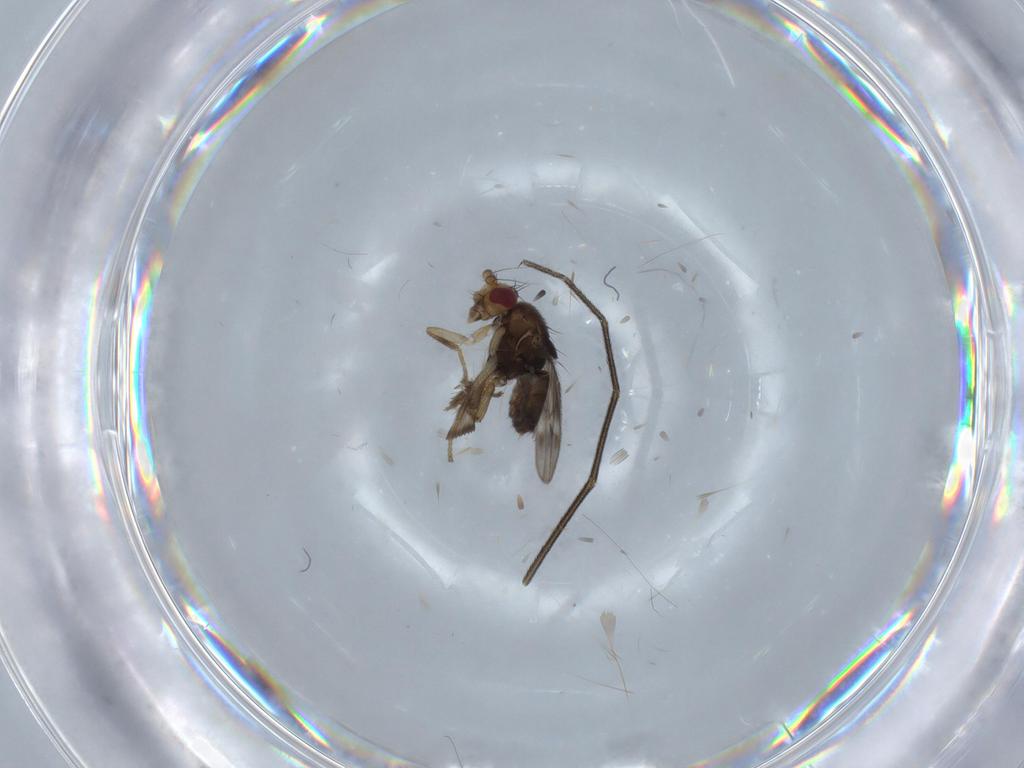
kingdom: Animalia
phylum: Arthropoda
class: Insecta
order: Diptera
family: Sphaeroceridae
